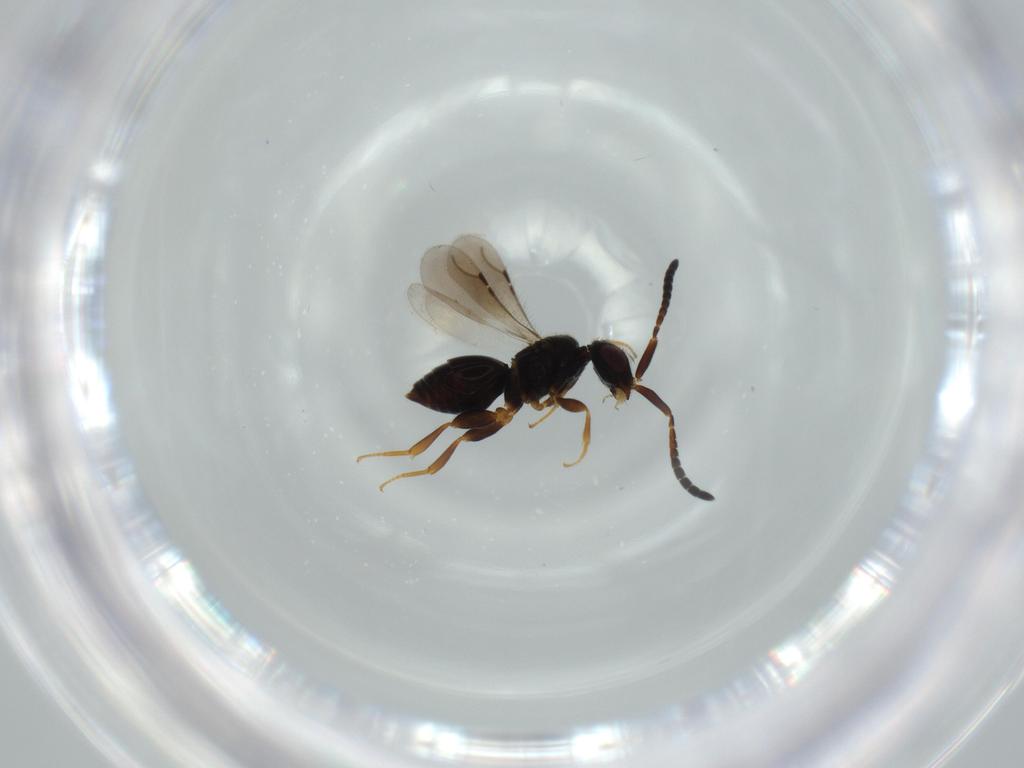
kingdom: Animalia
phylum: Arthropoda
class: Insecta
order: Hymenoptera
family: Ceraphronidae
